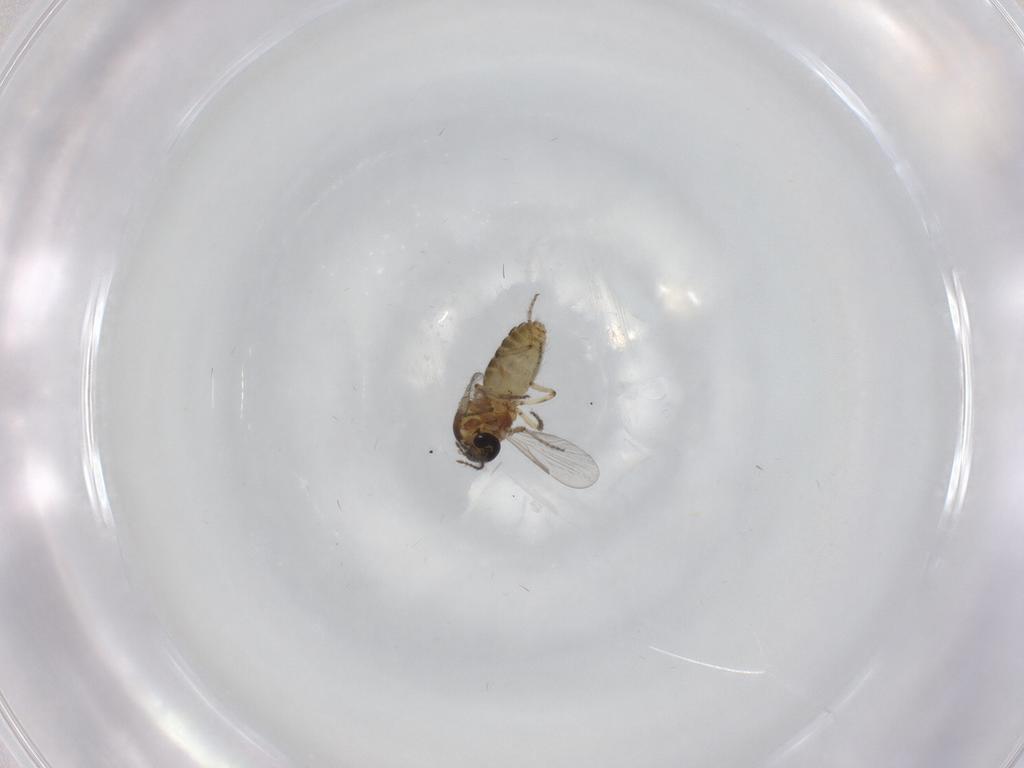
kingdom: Animalia
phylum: Arthropoda
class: Insecta
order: Diptera
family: Ceratopogonidae
